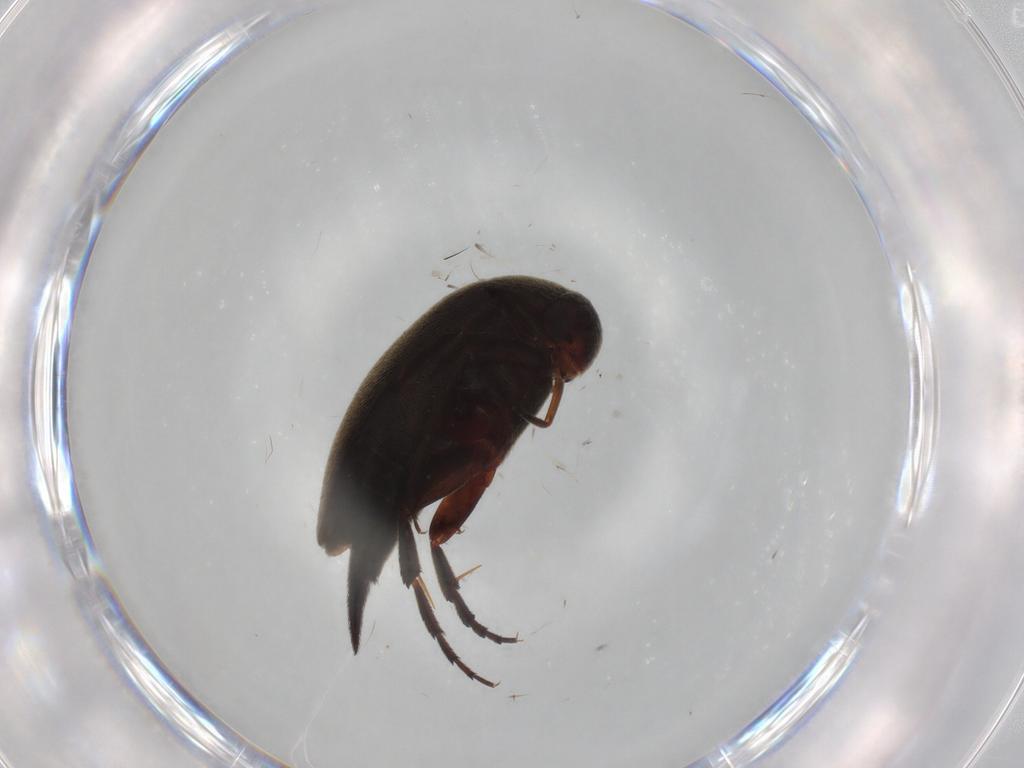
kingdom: Animalia
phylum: Arthropoda
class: Insecta
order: Coleoptera
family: Mordellidae
